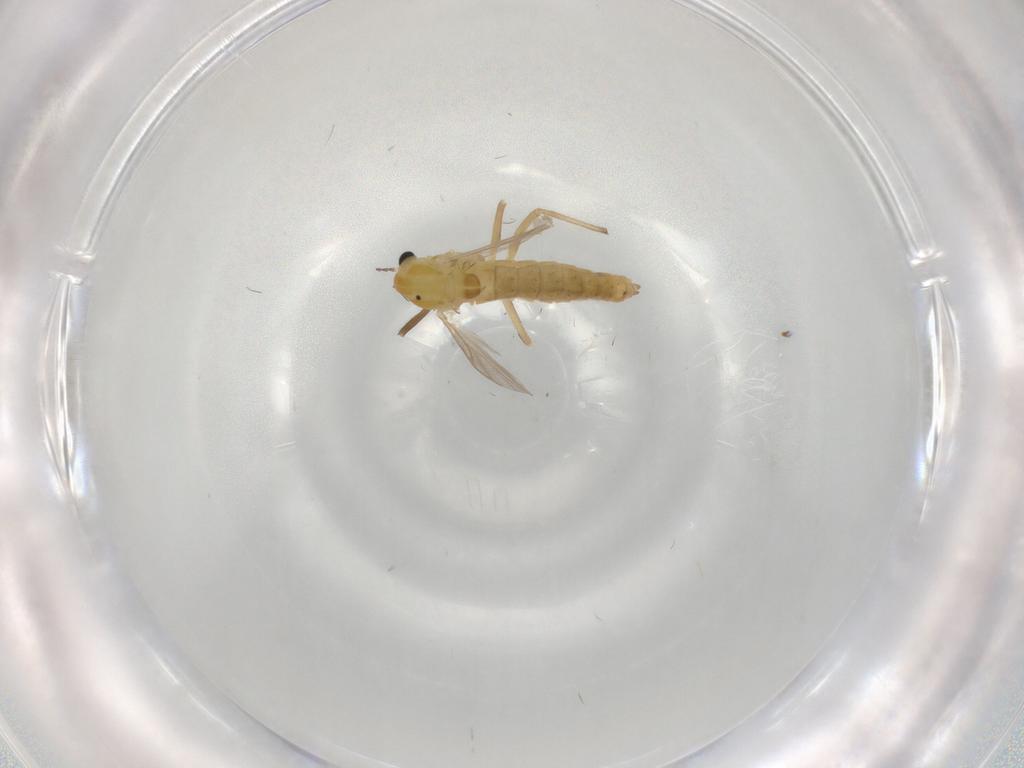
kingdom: Animalia
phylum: Arthropoda
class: Insecta
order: Diptera
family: Chironomidae
